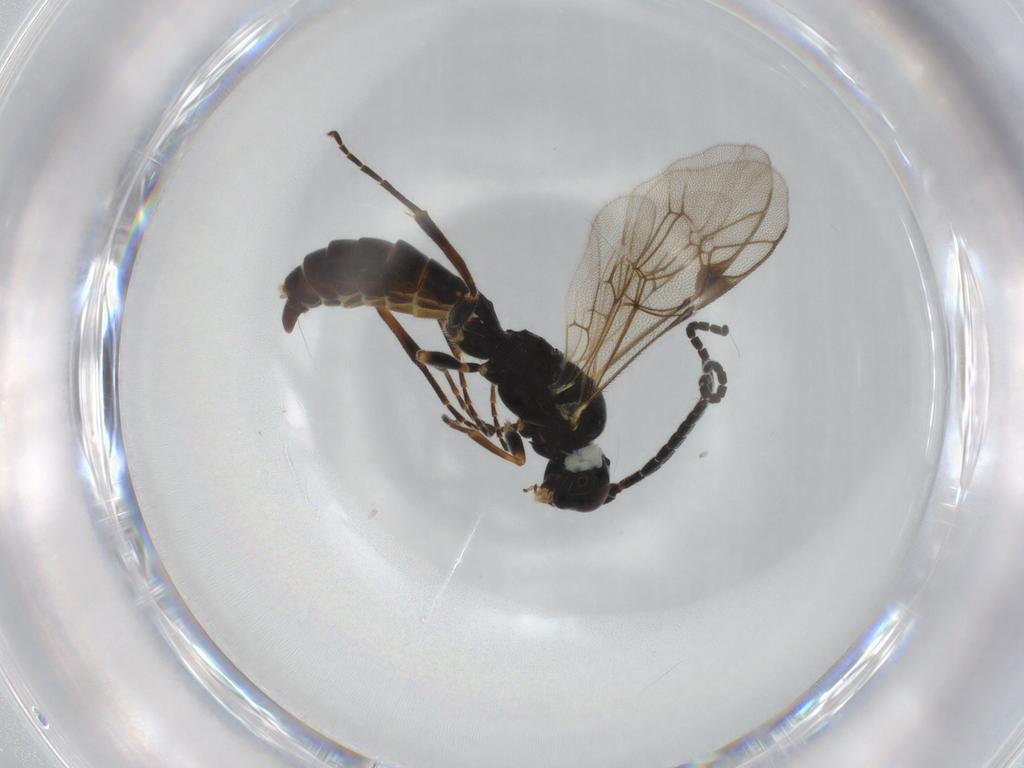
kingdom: Animalia
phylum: Arthropoda
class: Insecta
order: Hymenoptera
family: Ichneumonidae
